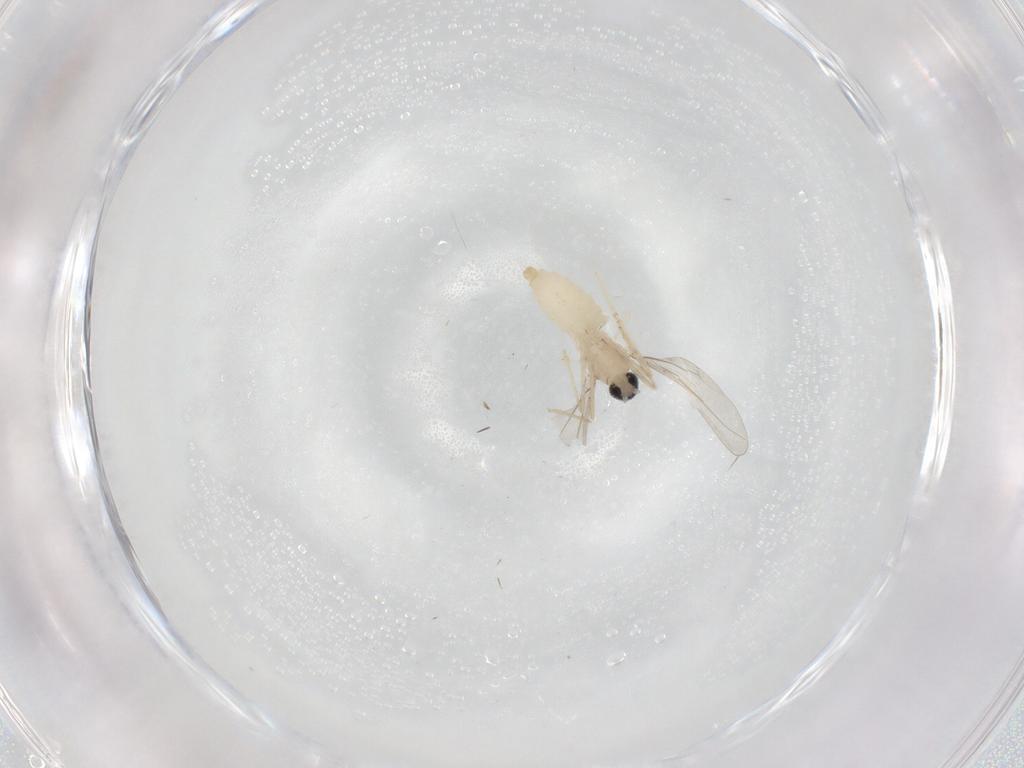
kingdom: Animalia
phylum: Arthropoda
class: Insecta
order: Diptera
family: Cecidomyiidae
